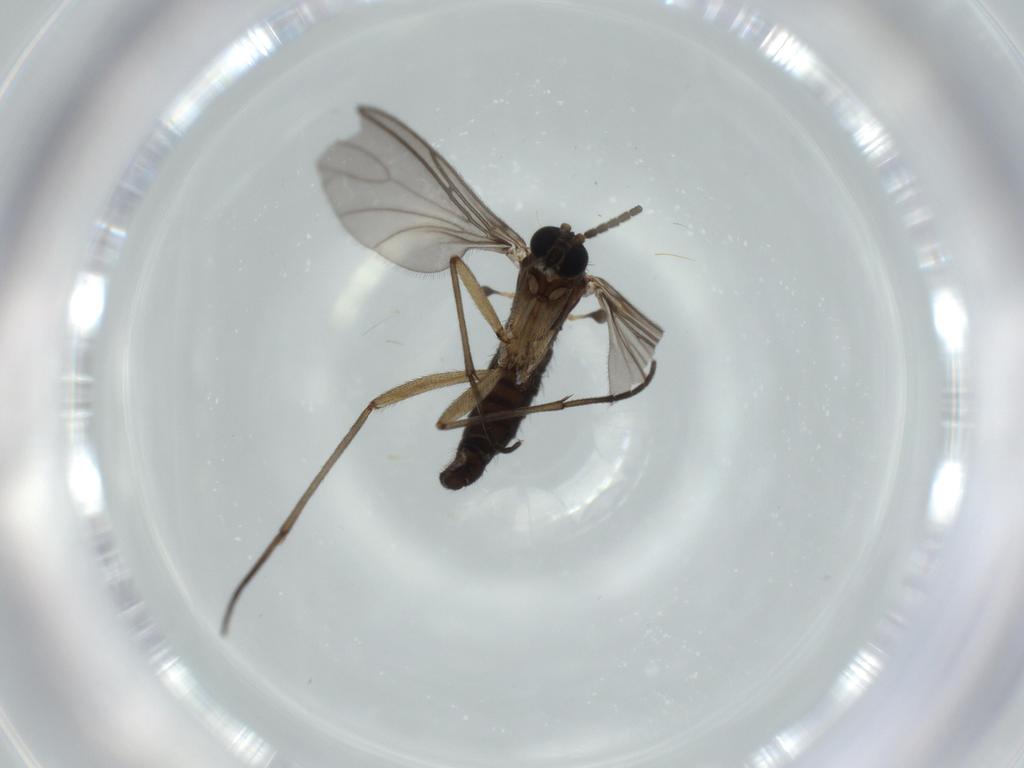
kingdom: Animalia
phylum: Arthropoda
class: Insecta
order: Diptera
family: Sciaridae
